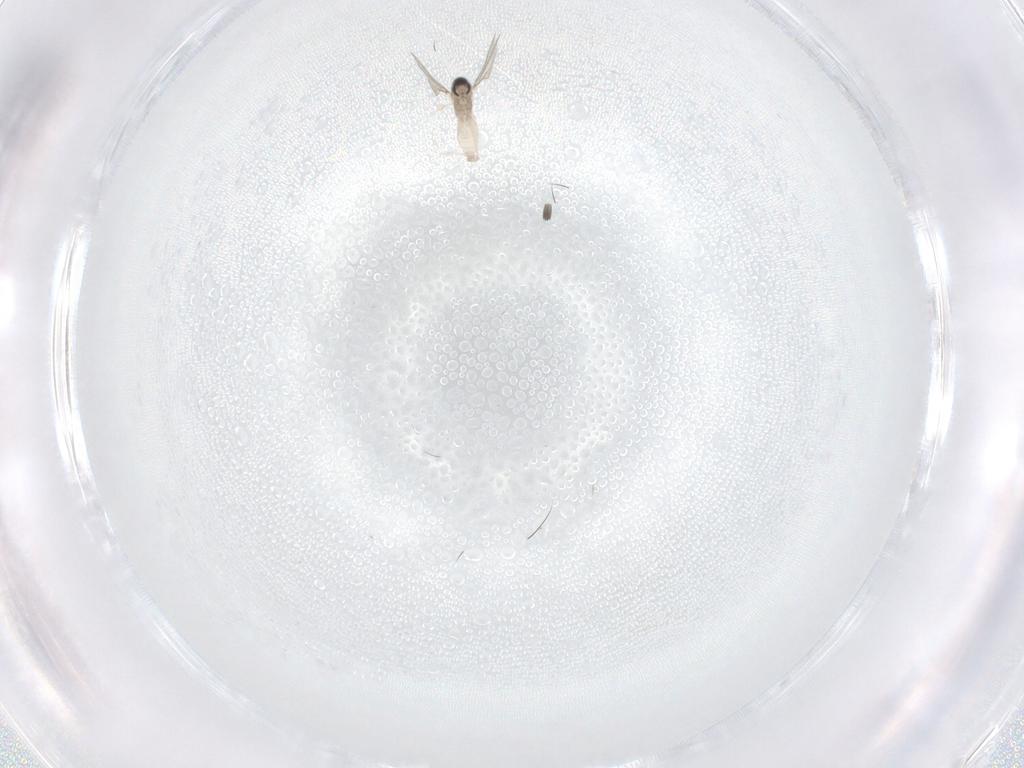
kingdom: Animalia
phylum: Arthropoda
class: Insecta
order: Diptera
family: Cecidomyiidae
